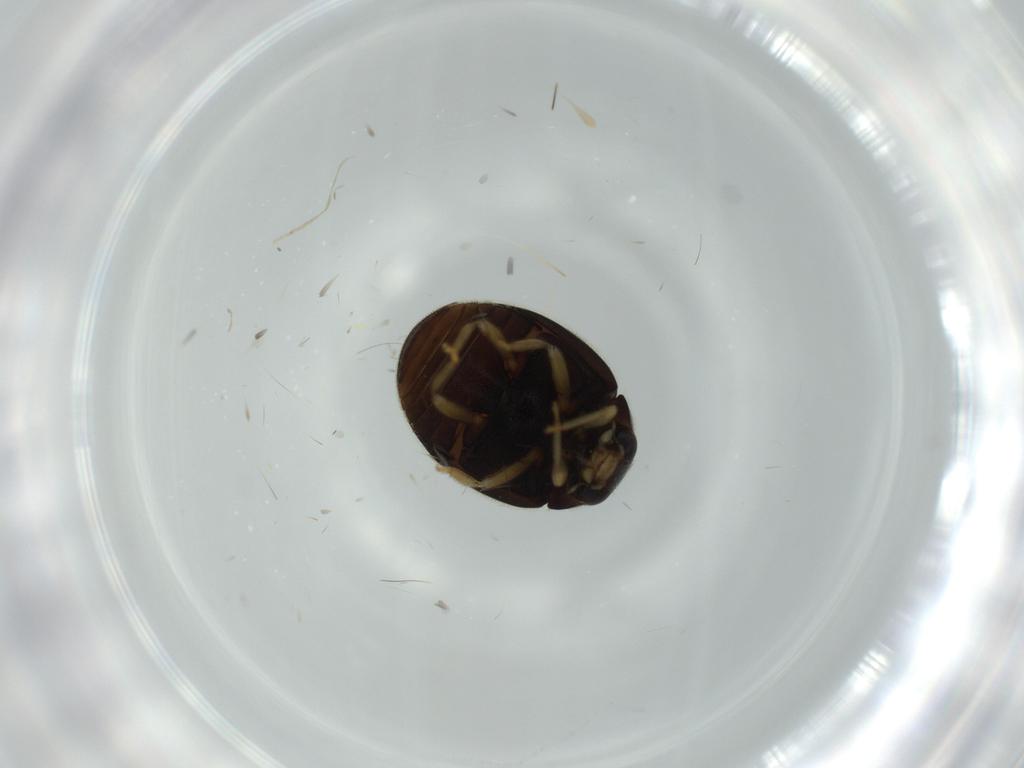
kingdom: Animalia
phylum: Arthropoda
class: Insecta
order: Coleoptera
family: Coccinellidae
